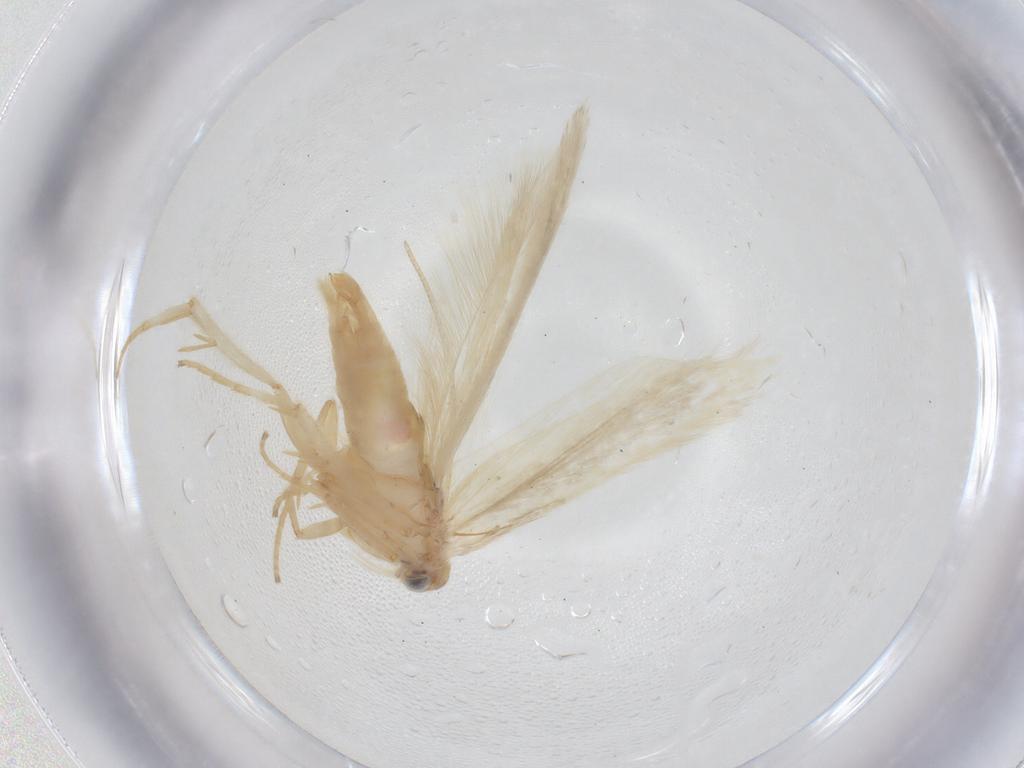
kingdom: Animalia
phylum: Arthropoda
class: Insecta
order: Lepidoptera
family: Gelechiidae
